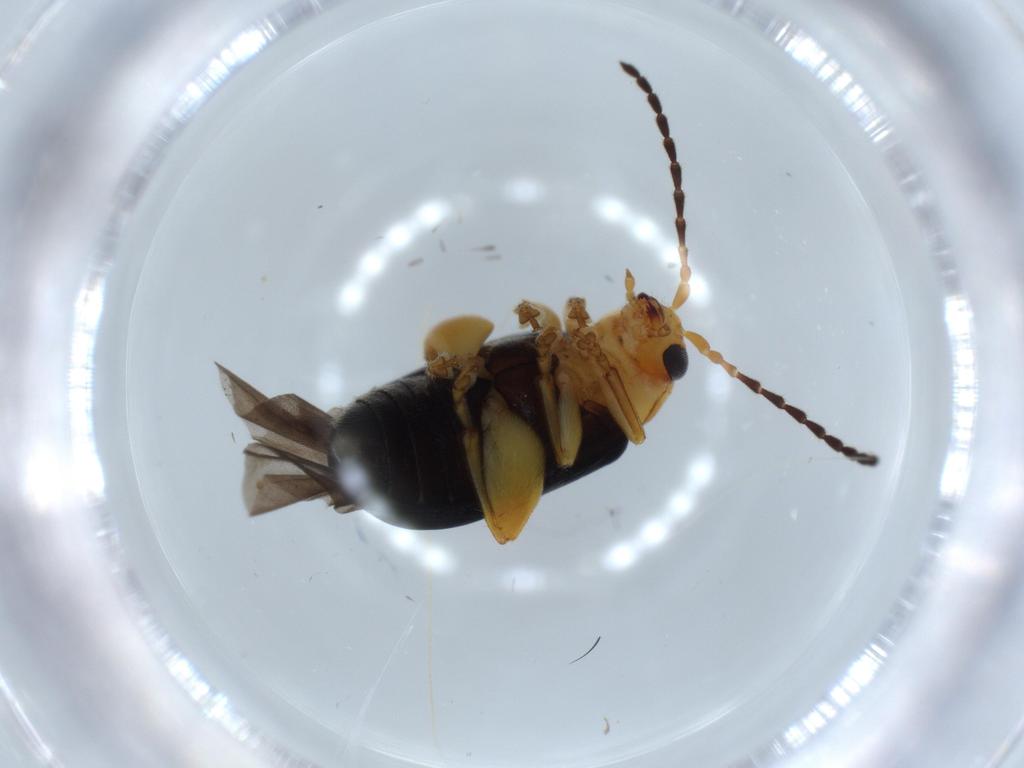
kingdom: Animalia
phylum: Arthropoda
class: Insecta
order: Coleoptera
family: Chrysomelidae
